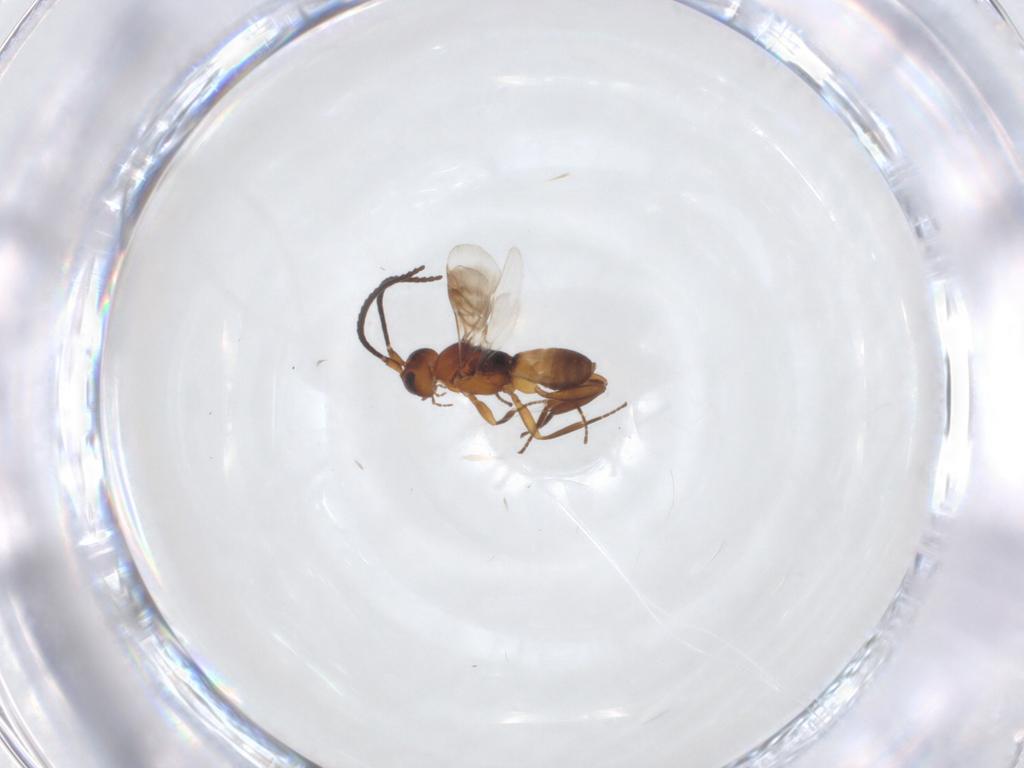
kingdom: Animalia
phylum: Arthropoda
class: Insecta
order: Hymenoptera
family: Braconidae
